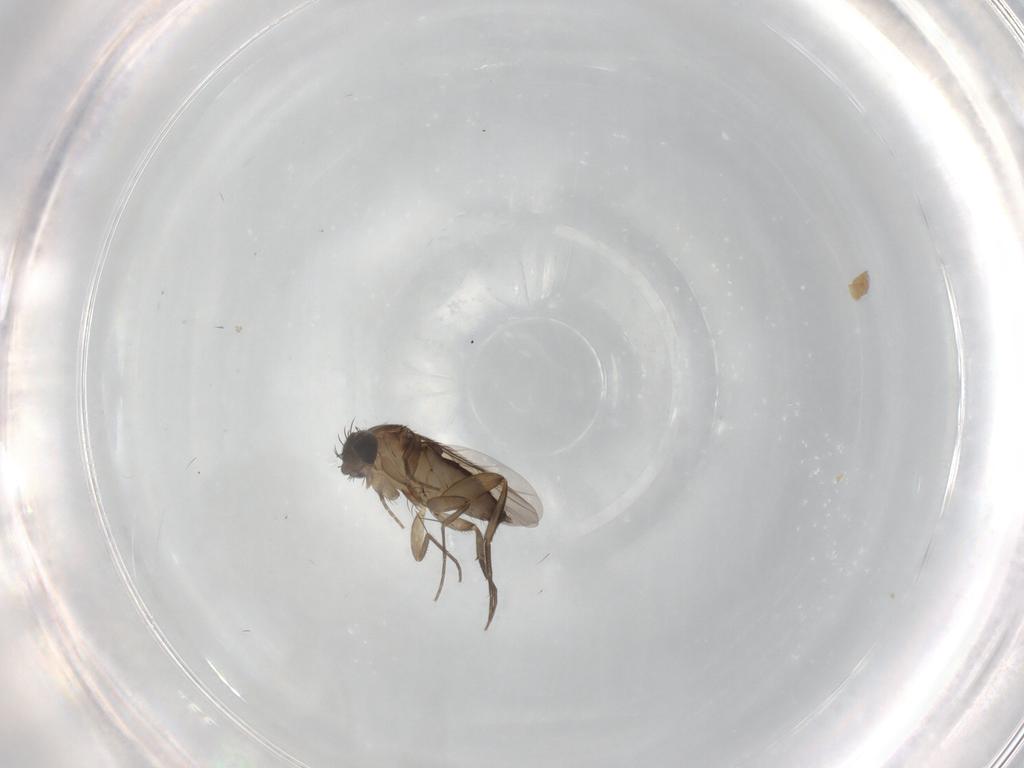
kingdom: Animalia
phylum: Arthropoda
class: Insecta
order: Diptera
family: Phoridae
